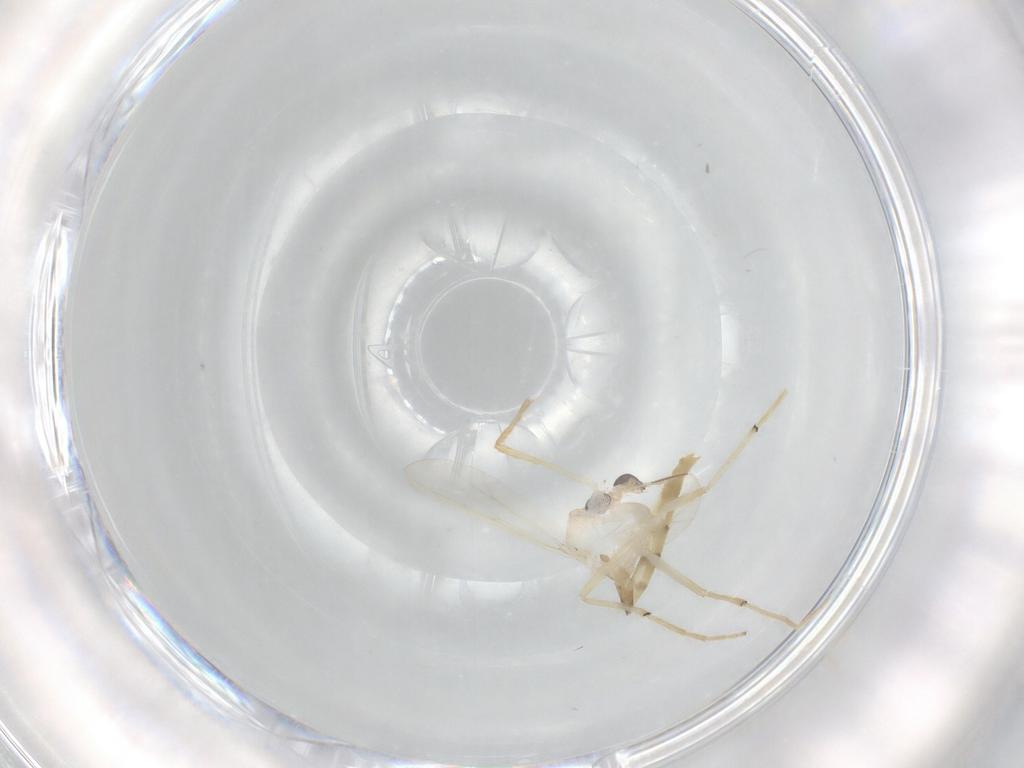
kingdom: Animalia
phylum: Arthropoda
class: Insecta
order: Diptera
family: Chironomidae
